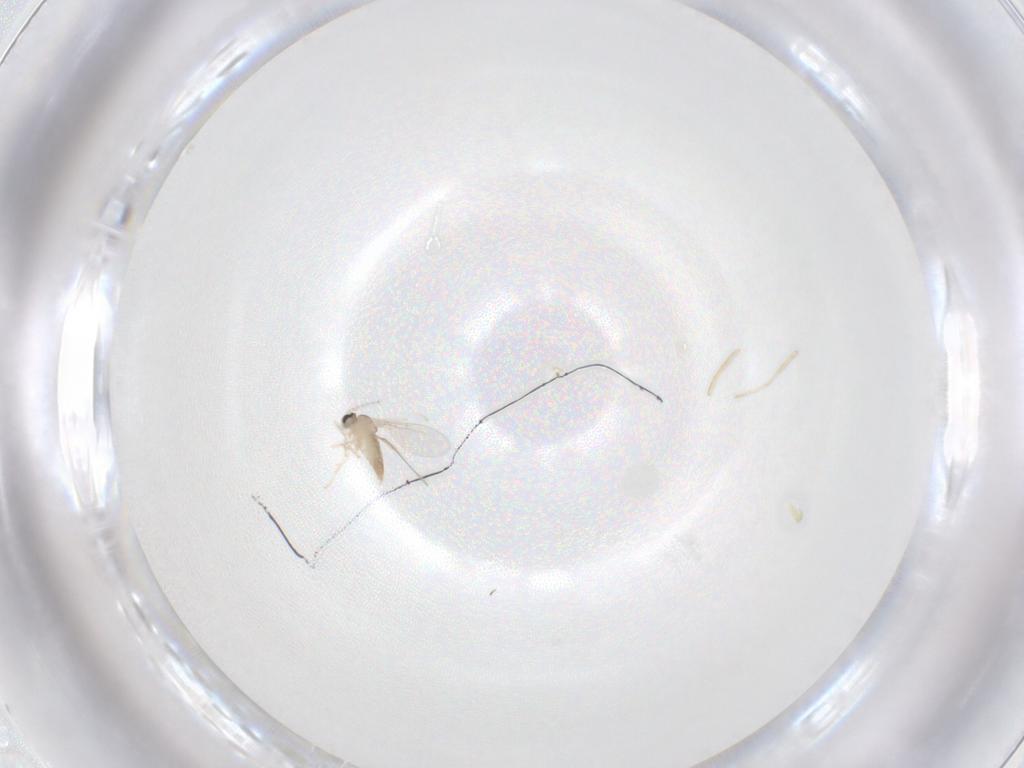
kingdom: Animalia
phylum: Arthropoda
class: Insecta
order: Hymenoptera
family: Scelionidae
